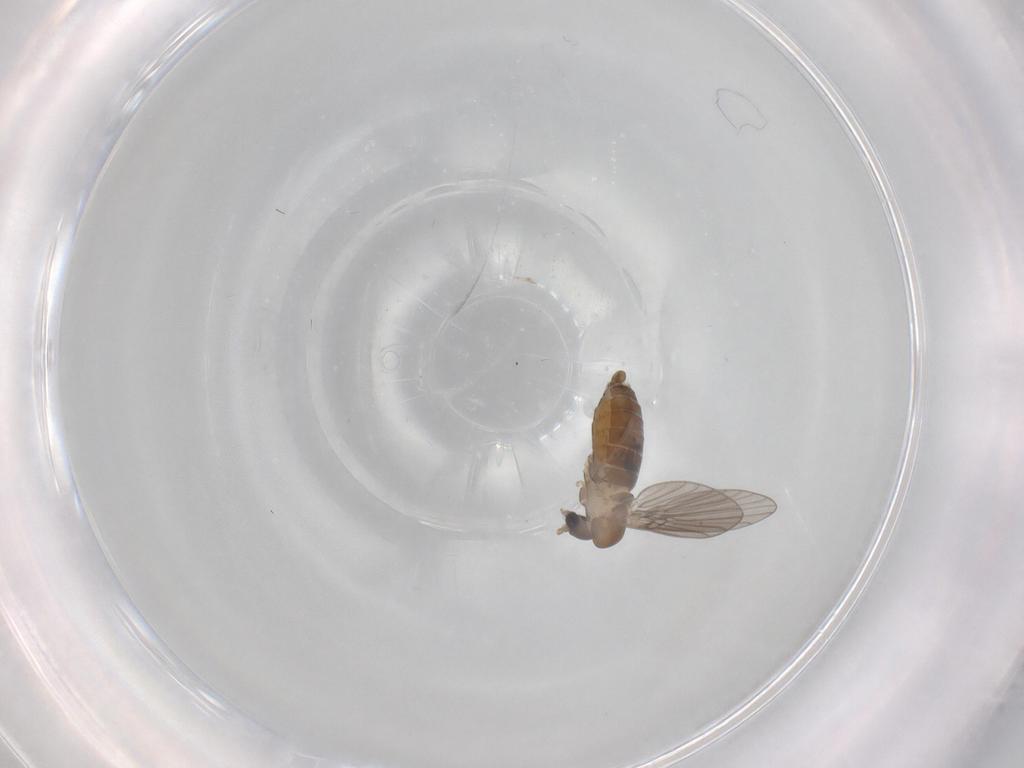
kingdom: Animalia
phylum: Arthropoda
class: Insecta
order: Diptera
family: Psychodidae
